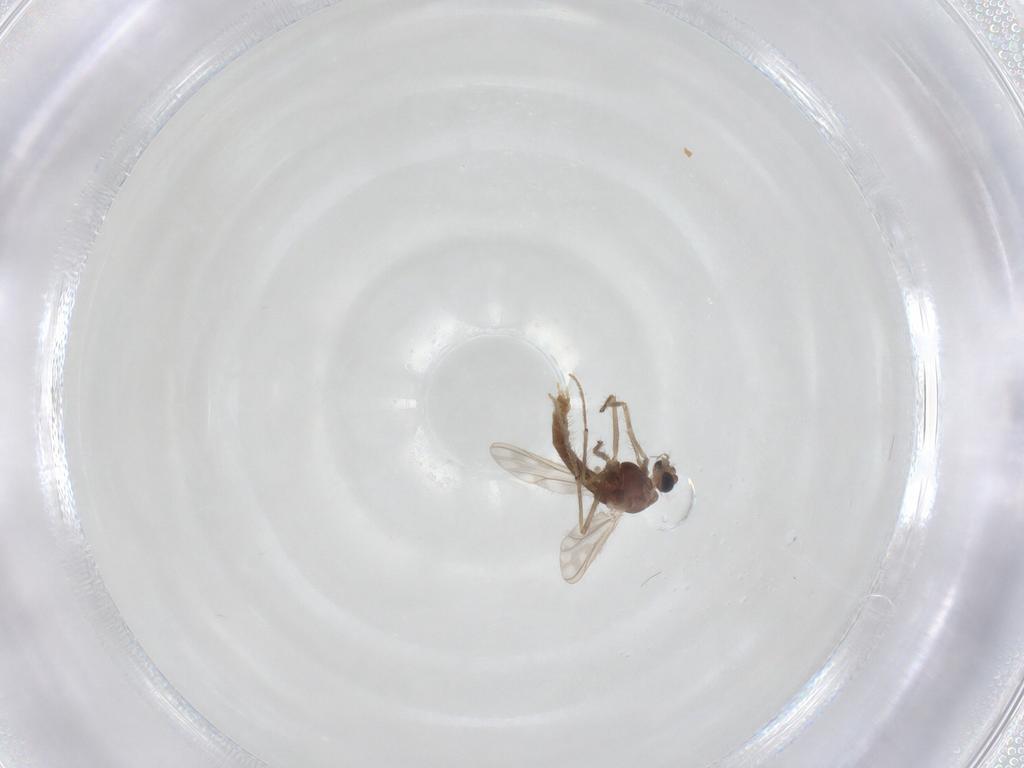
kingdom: Animalia
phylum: Arthropoda
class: Insecta
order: Diptera
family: Chironomidae
